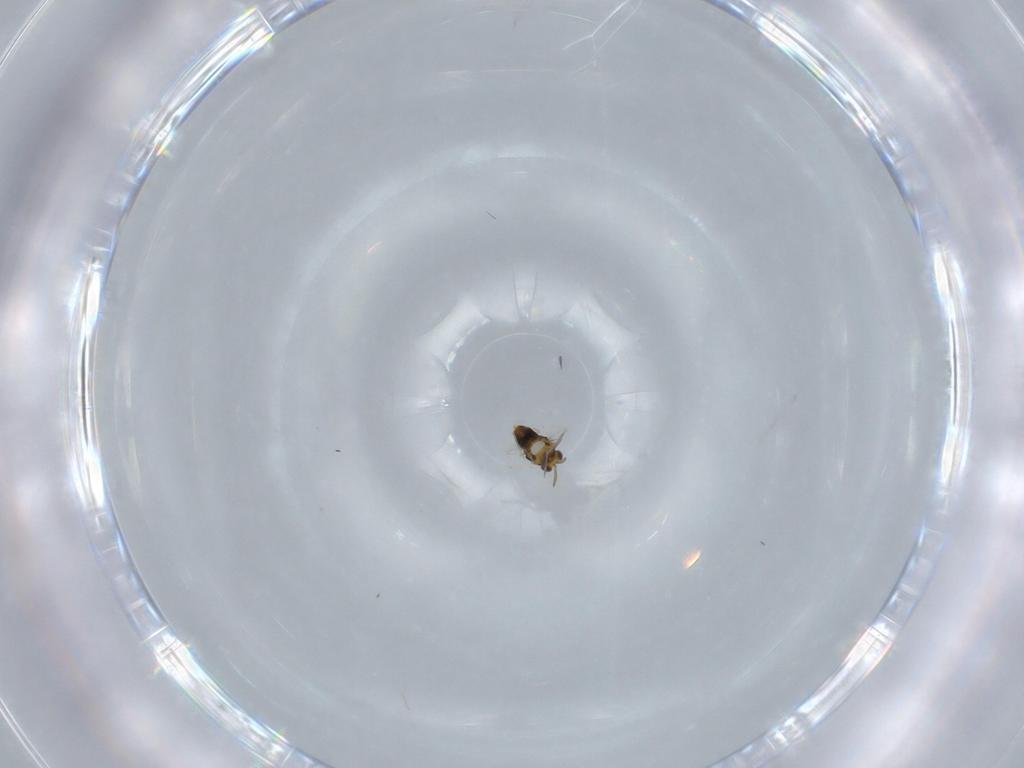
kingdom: Animalia
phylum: Arthropoda
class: Insecta
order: Hymenoptera
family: Aphelinidae
